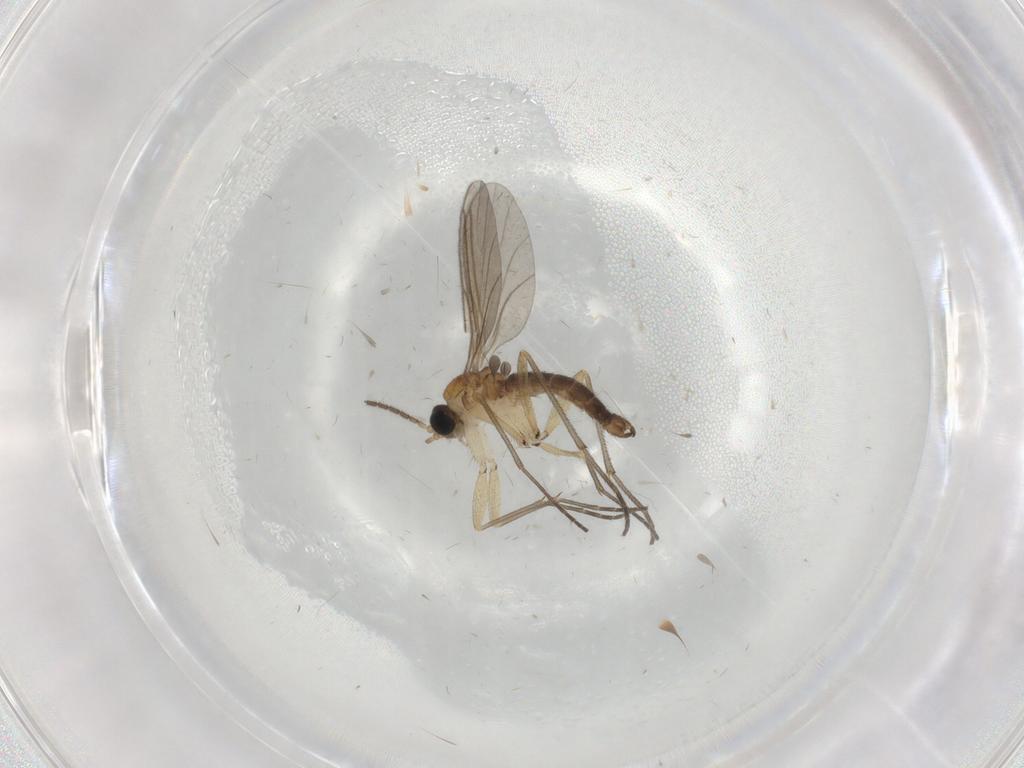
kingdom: Animalia
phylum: Arthropoda
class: Insecta
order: Diptera
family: Sciaridae
